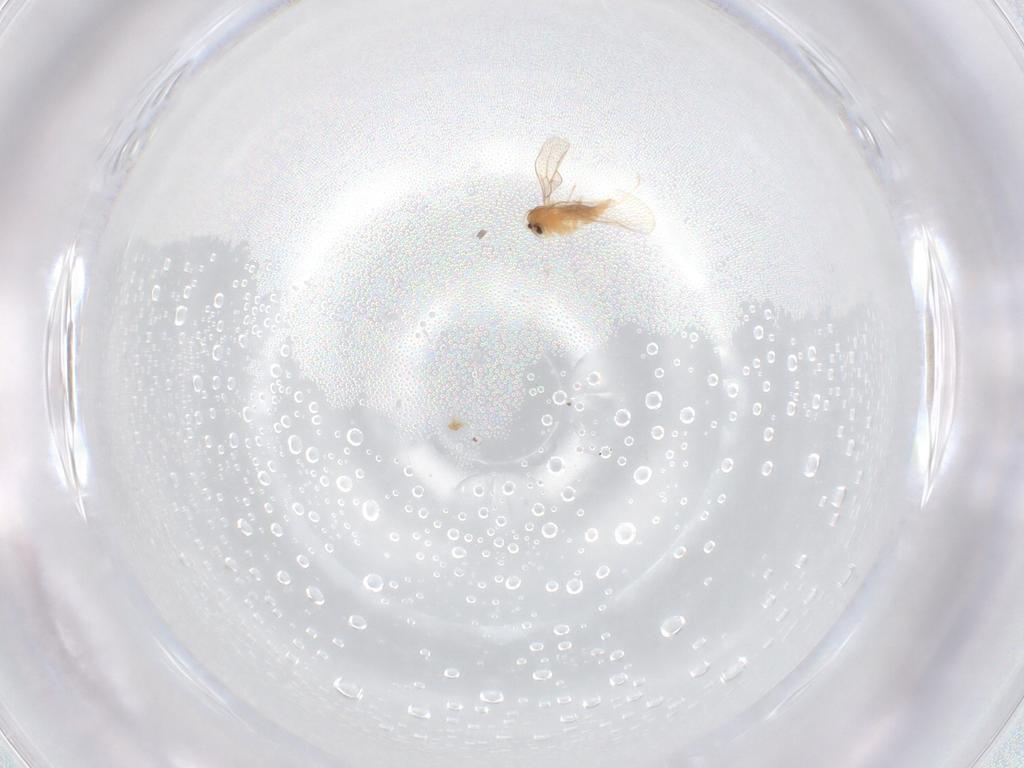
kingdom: Animalia
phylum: Arthropoda
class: Insecta
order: Diptera
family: Cecidomyiidae
